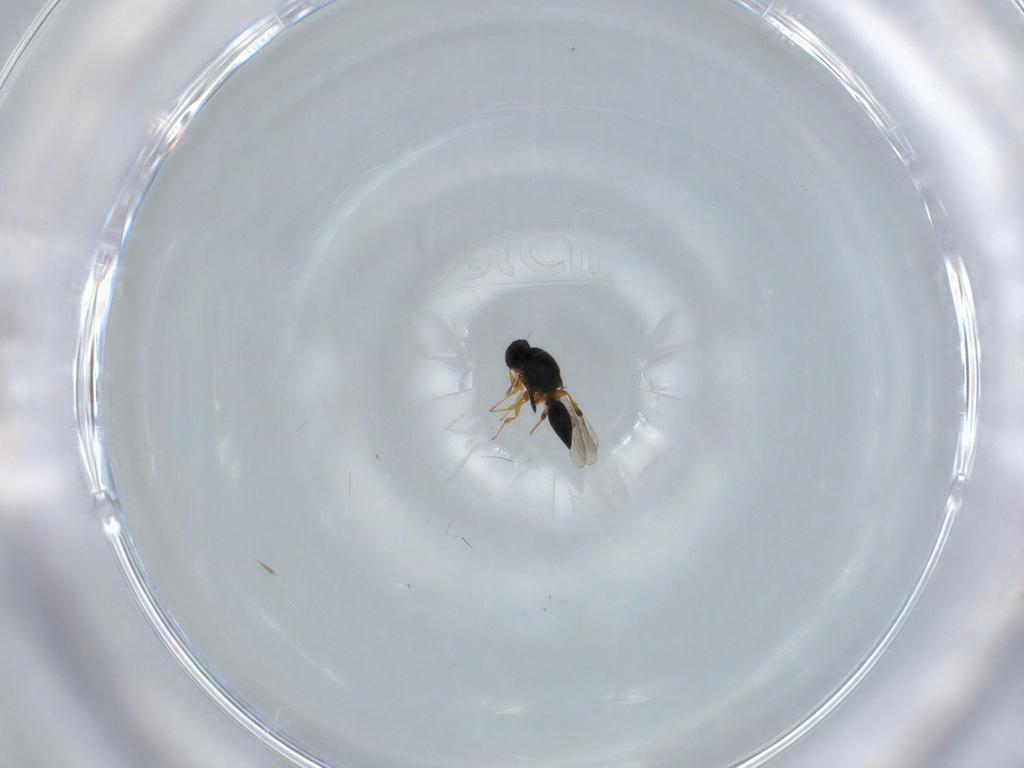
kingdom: Animalia
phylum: Arthropoda
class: Insecta
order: Hymenoptera
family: Platygastridae
